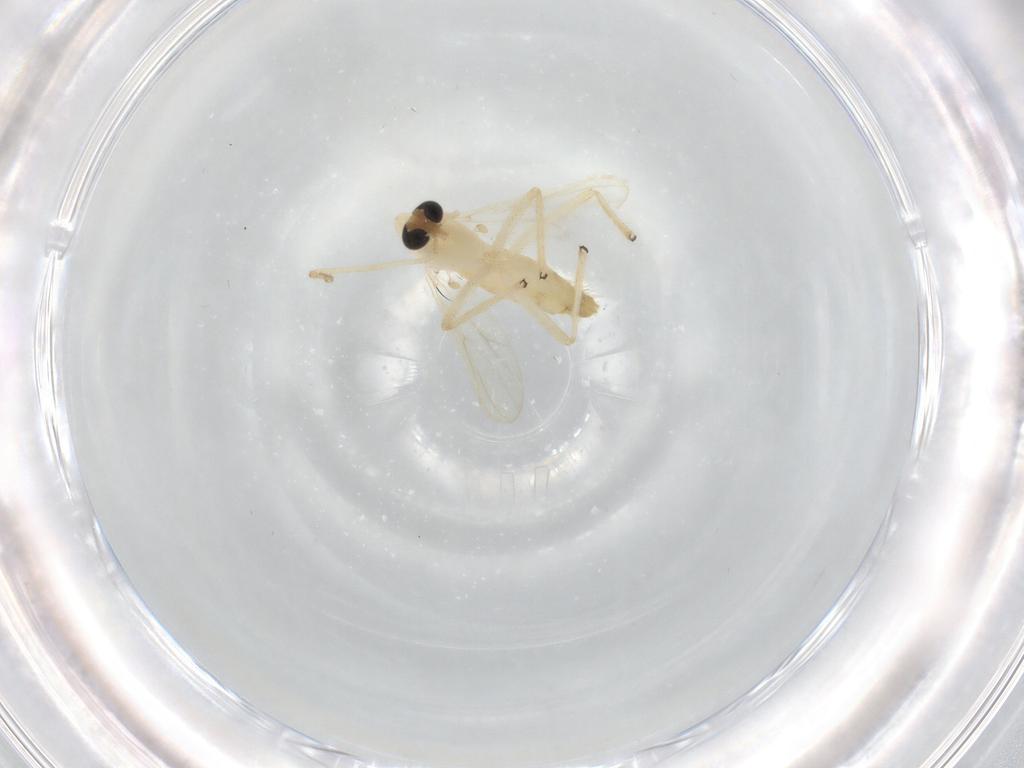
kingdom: Animalia
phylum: Arthropoda
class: Insecta
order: Diptera
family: Chironomidae
